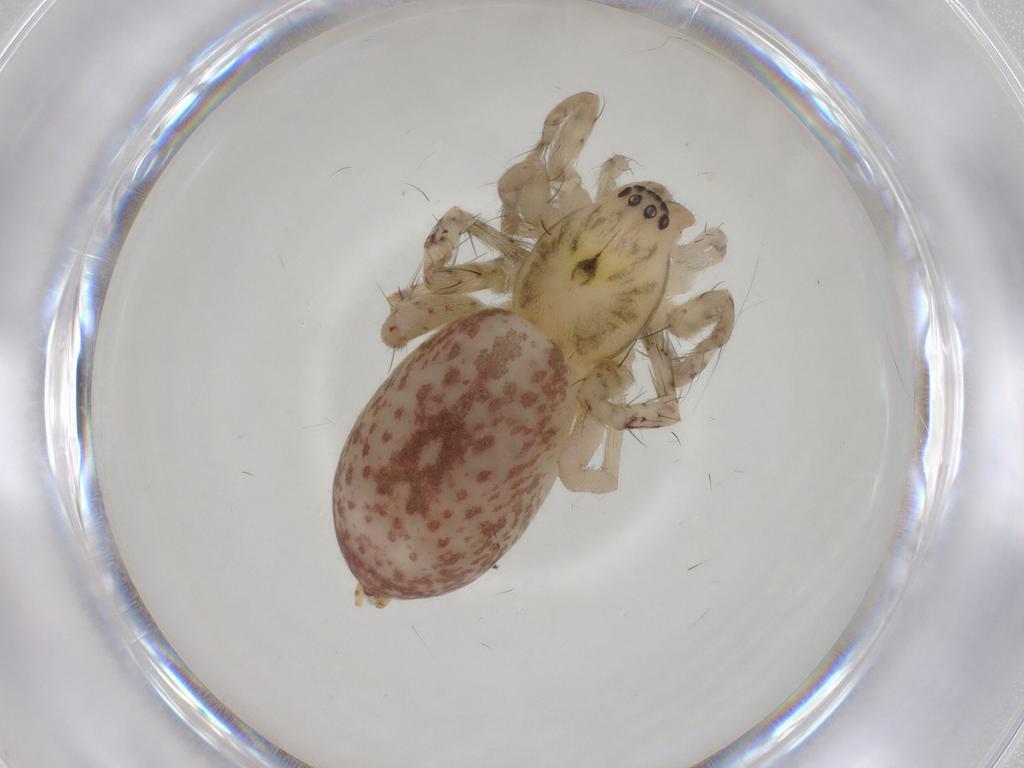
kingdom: Animalia
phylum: Arthropoda
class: Arachnida
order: Araneae
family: Anyphaenidae
